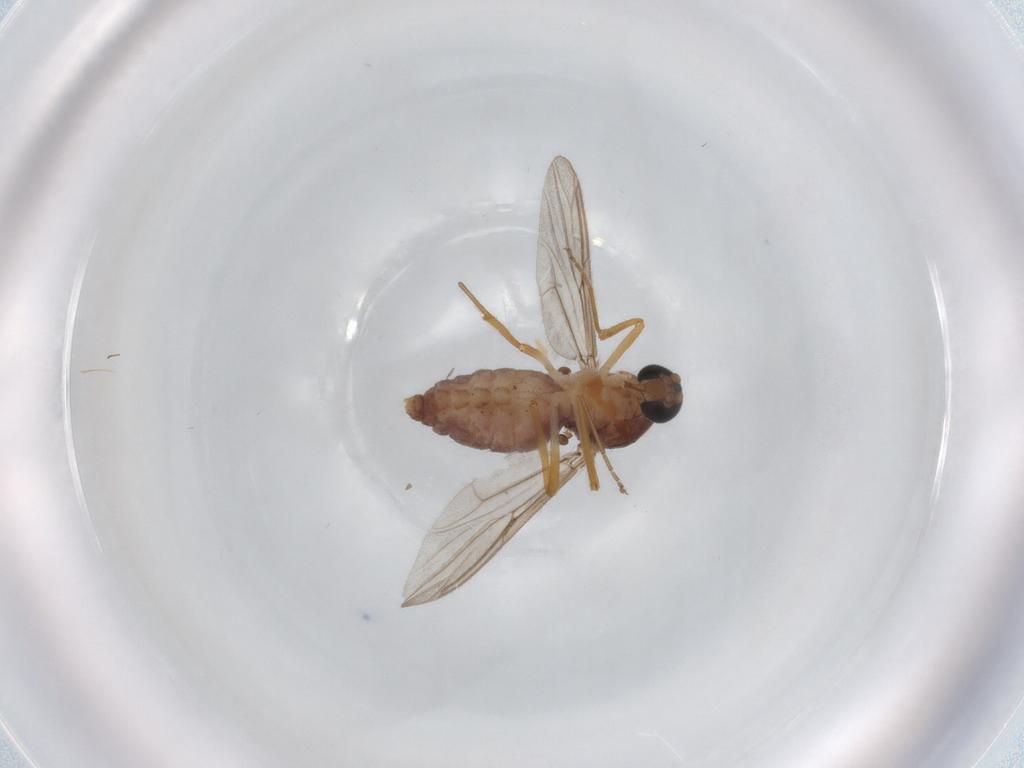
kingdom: Animalia
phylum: Arthropoda
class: Insecta
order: Diptera
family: Ceratopogonidae
